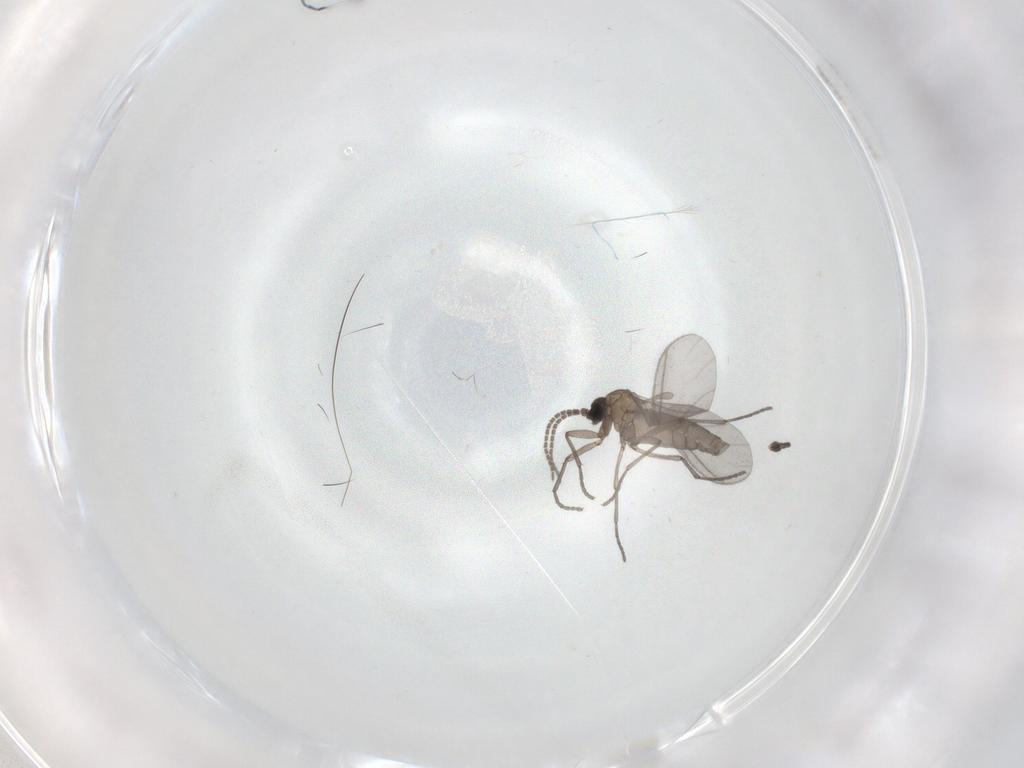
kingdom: Animalia
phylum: Arthropoda
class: Insecta
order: Diptera
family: Sciaridae
